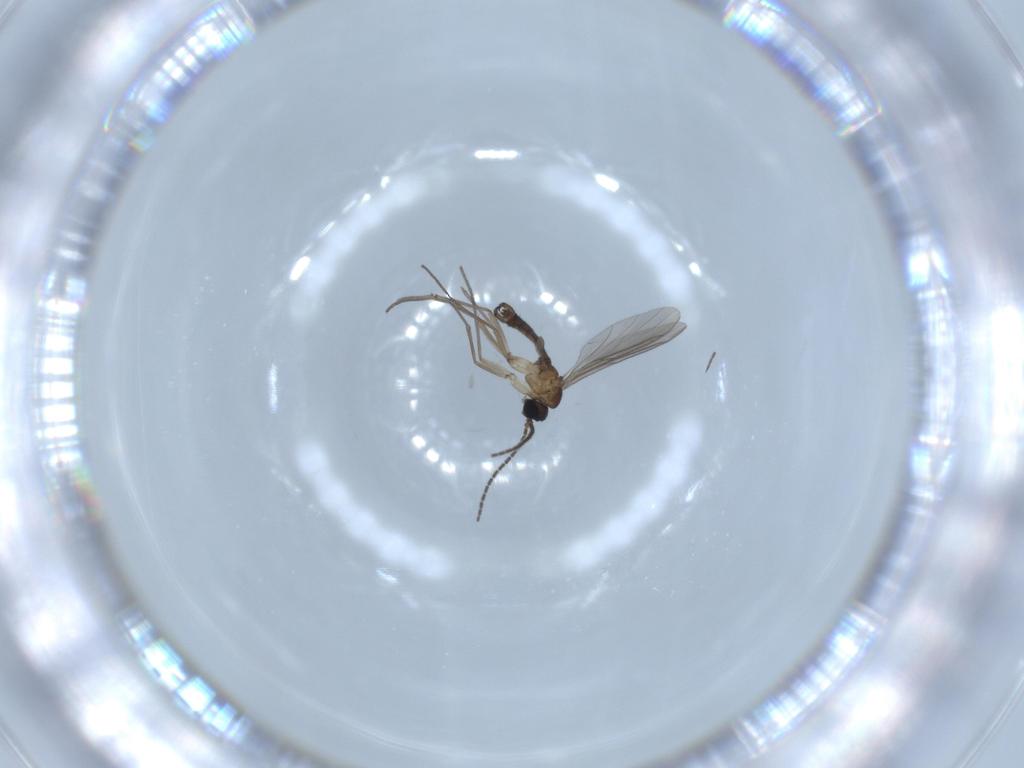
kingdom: Animalia
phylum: Arthropoda
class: Insecta
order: Diptera
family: Sciaridae
